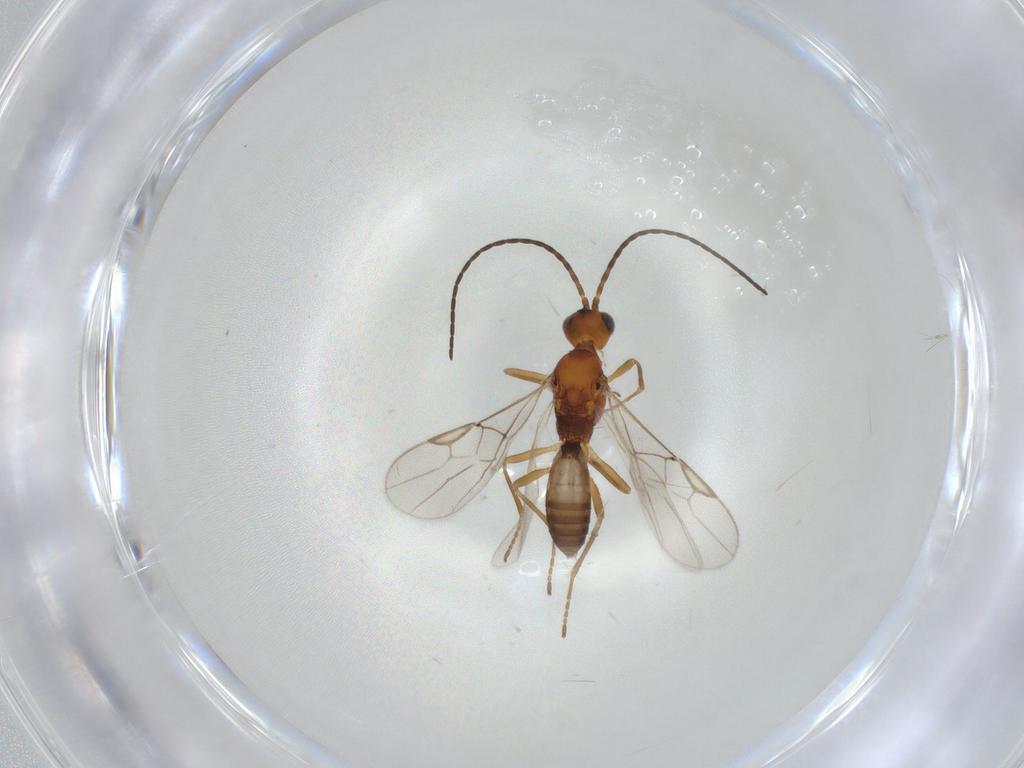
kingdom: Animalia
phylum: Arthropoda
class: Insecta
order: Hymenoptera
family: Braconidae
